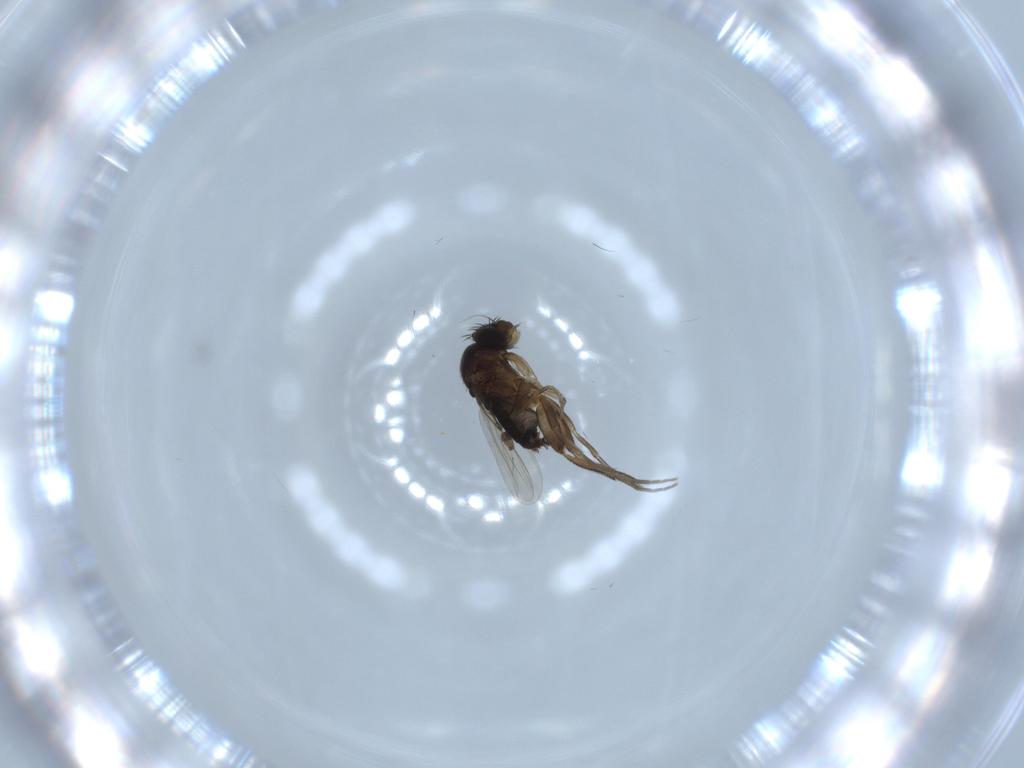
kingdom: Animalia
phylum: Arthropoda
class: Insecta
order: Diptera
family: Phoridae
